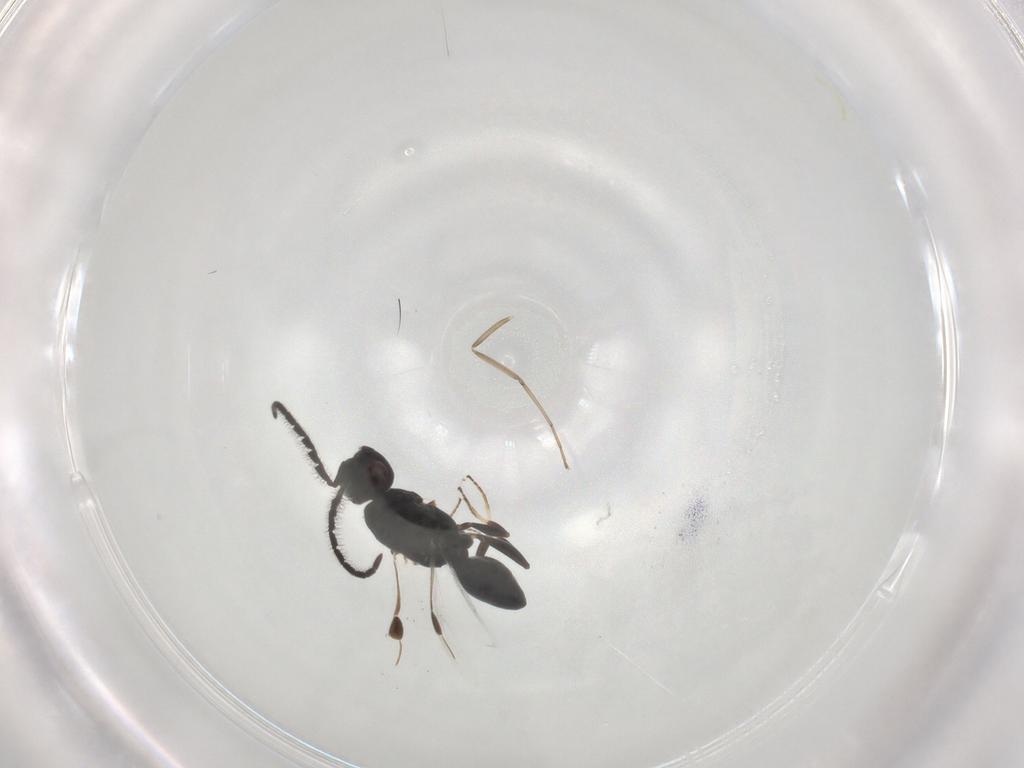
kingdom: Animalia
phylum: Arthropoda
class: Insecta
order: Hymenoptera
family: Megaspilidae
